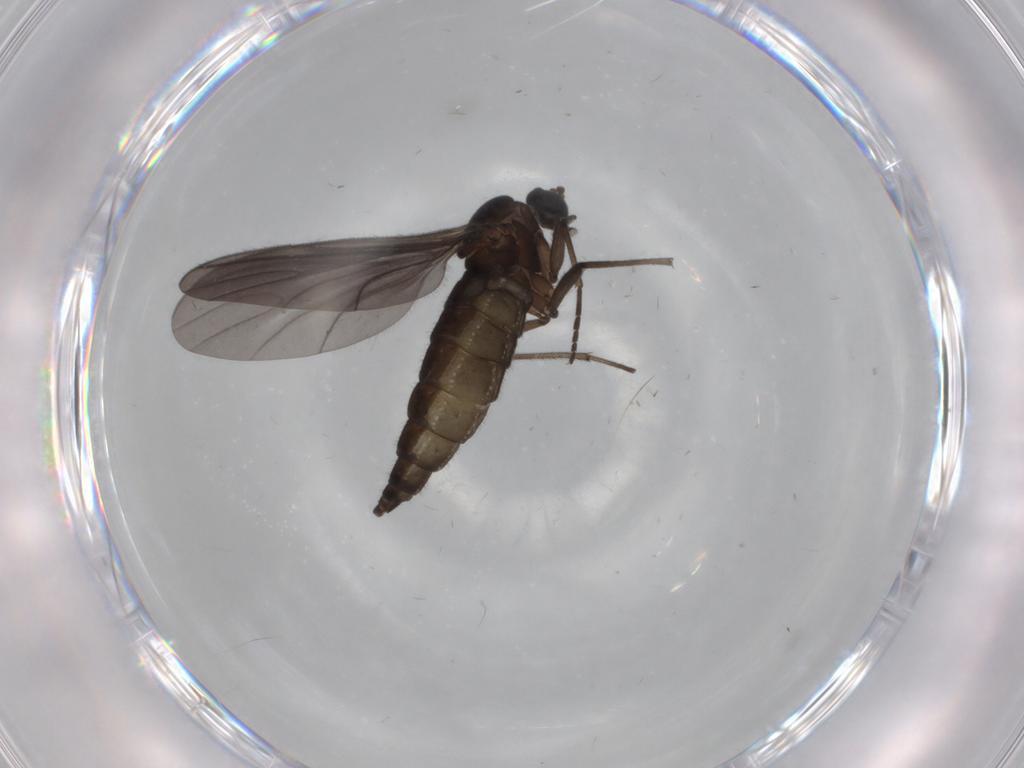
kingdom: Animalia
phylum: Arthropoda
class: Insecta
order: Diptera
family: Sciaridae
